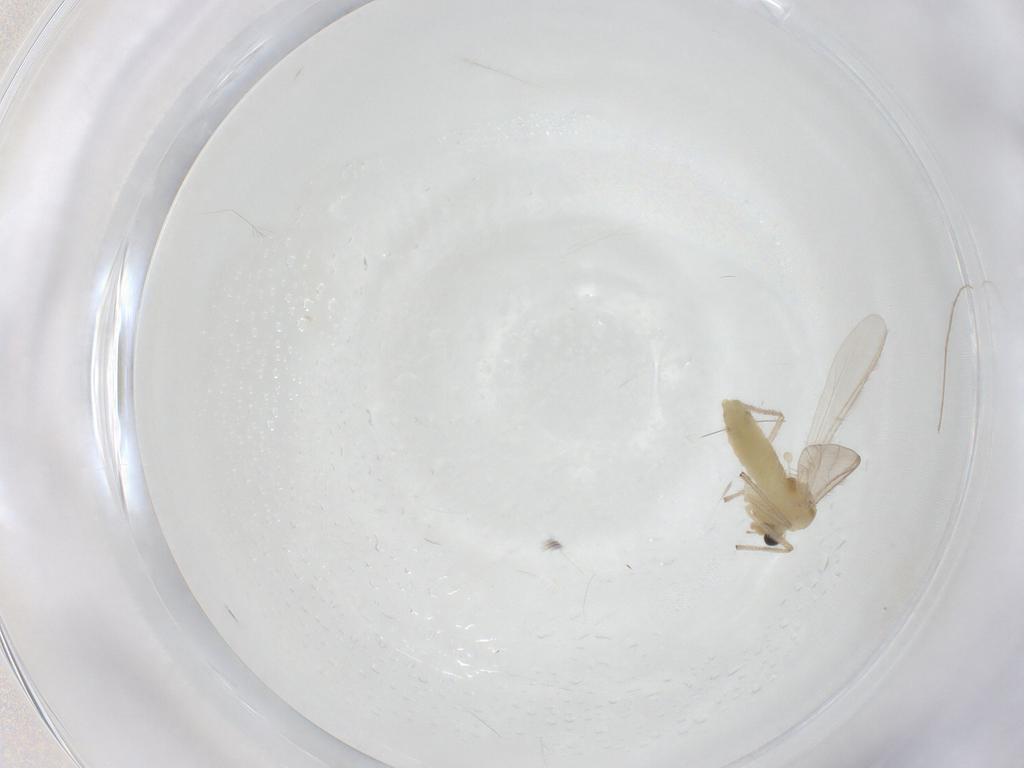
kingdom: Animalia
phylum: Arthropoda
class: Insecta
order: Diptera
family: Chironomidae
